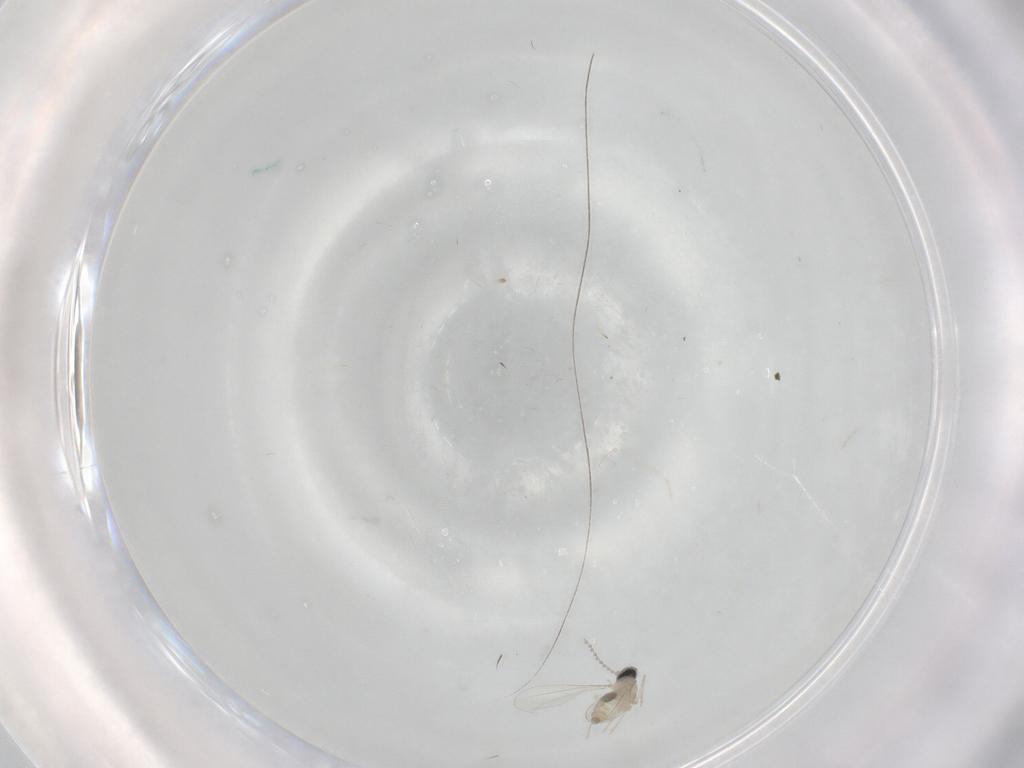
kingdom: Animalia
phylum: Arthropoda
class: Insecta
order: Diptera
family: Cecidomyiidae
